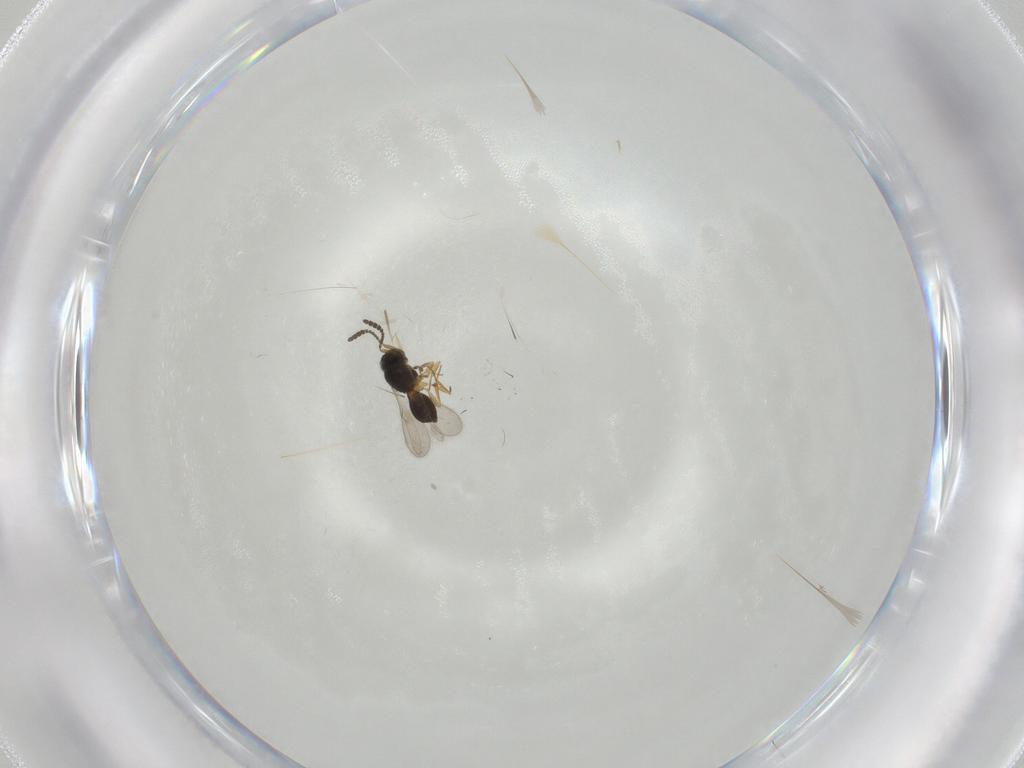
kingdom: Animalia
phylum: Arthropoda
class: Insecta
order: Hymenoptera
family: Scelionidae
